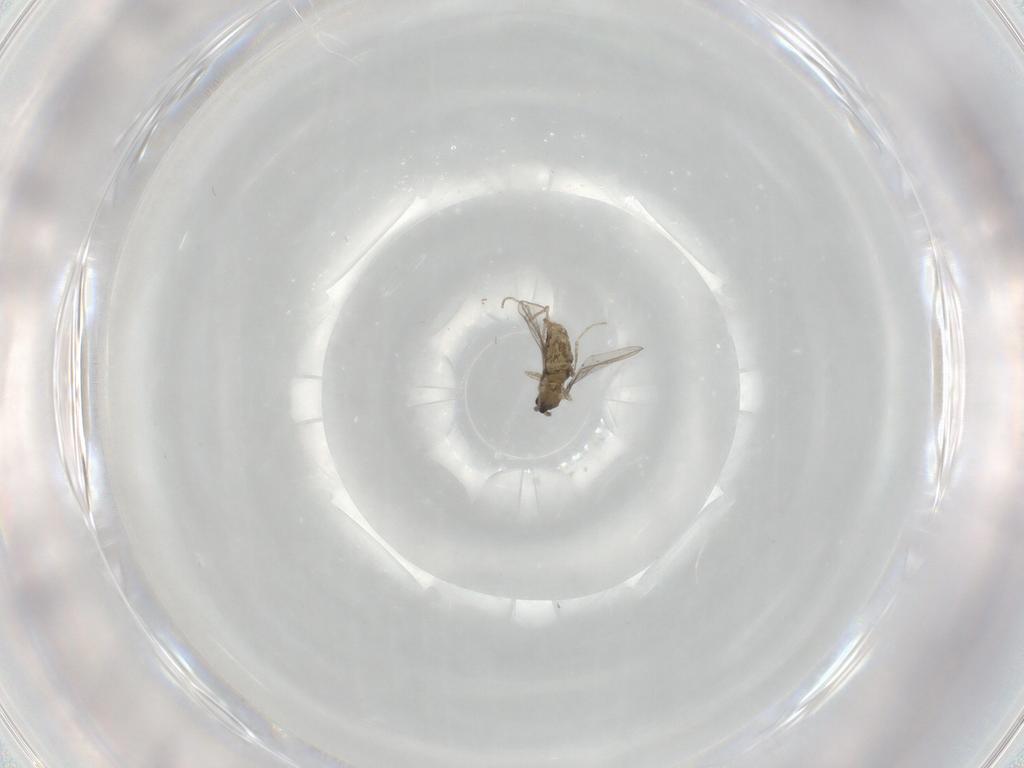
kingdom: Animalia
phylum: Arthropoda
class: Insecta
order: Diptera
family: Cecidomyiidae
